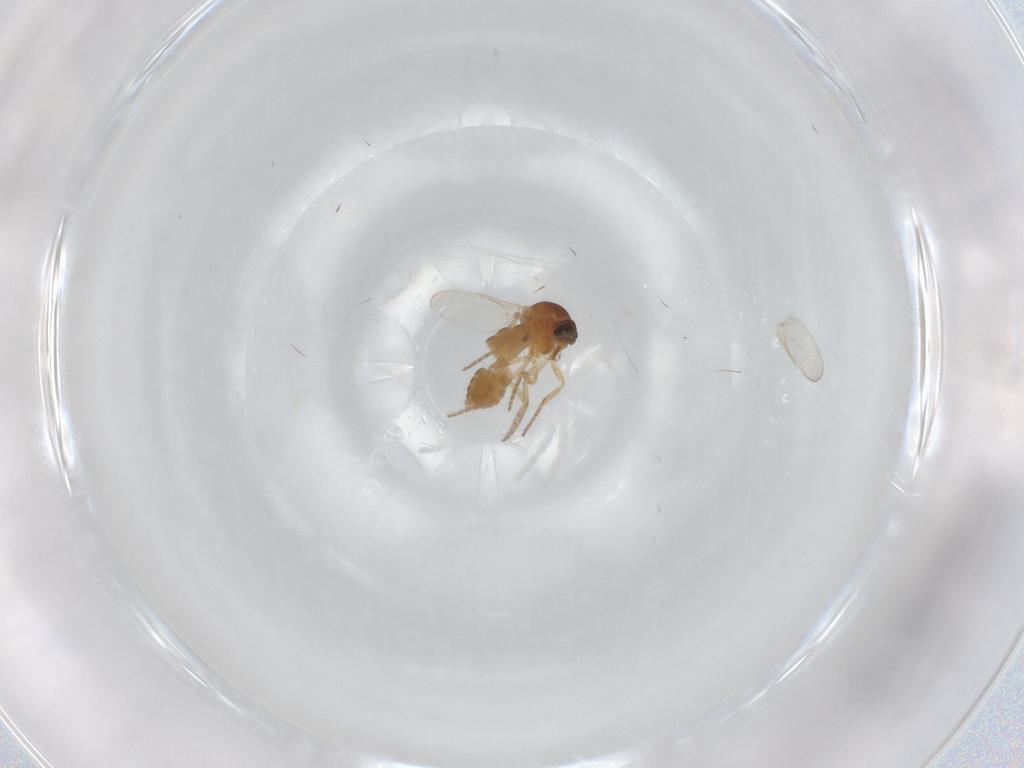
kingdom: Animalia
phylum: Arthropoda
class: Insecta
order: Diptera
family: Ceratopogonidae
